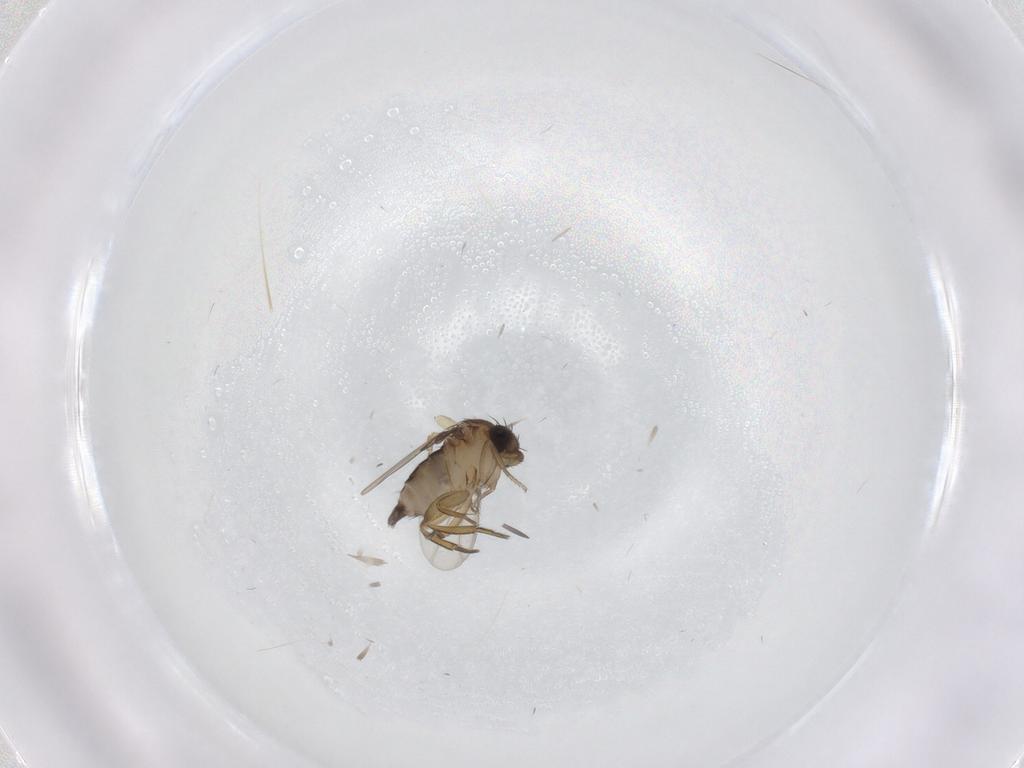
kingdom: Animalia
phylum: Arthropoda
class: Insecta
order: Diptera
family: Phoridae
